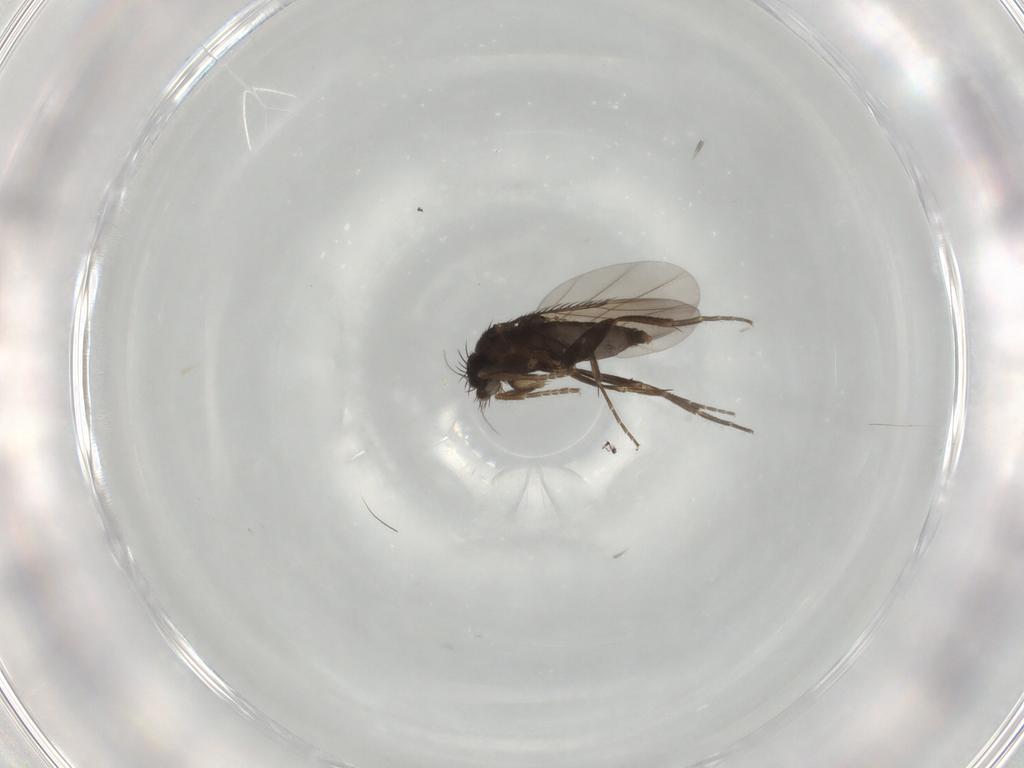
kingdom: Animalia
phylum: Arthropoda
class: Insecta
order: Diptera
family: Phoridae
